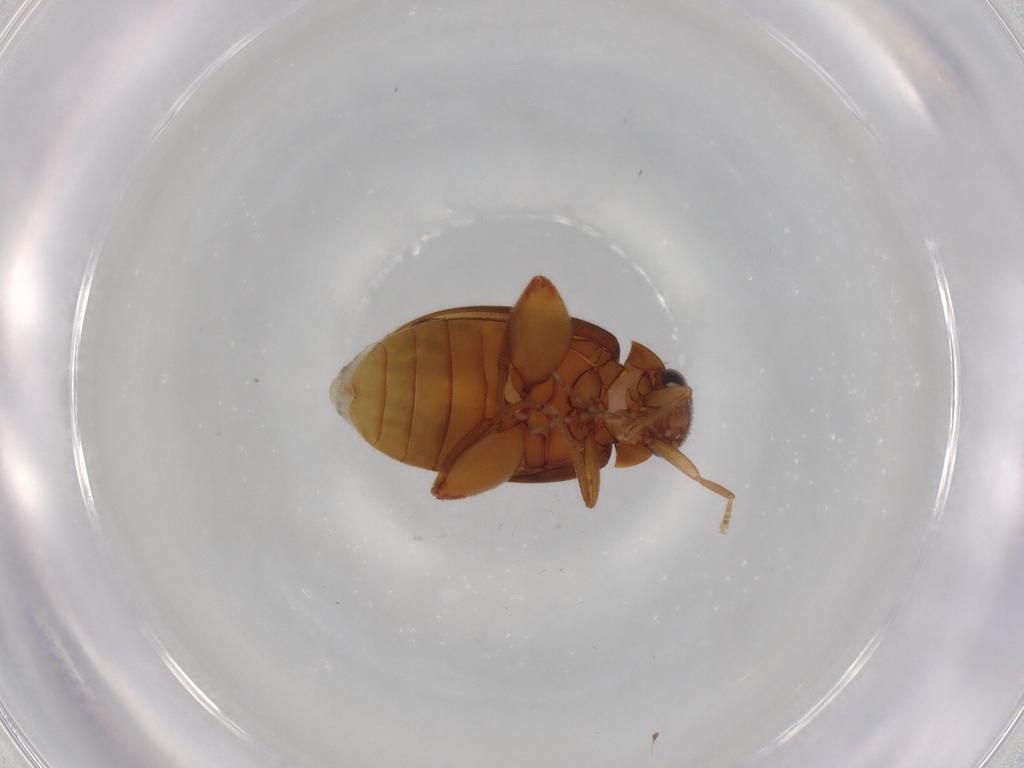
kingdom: Animalia
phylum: Arthropoda
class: Insecta
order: Coleoptera
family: Scirtidae
